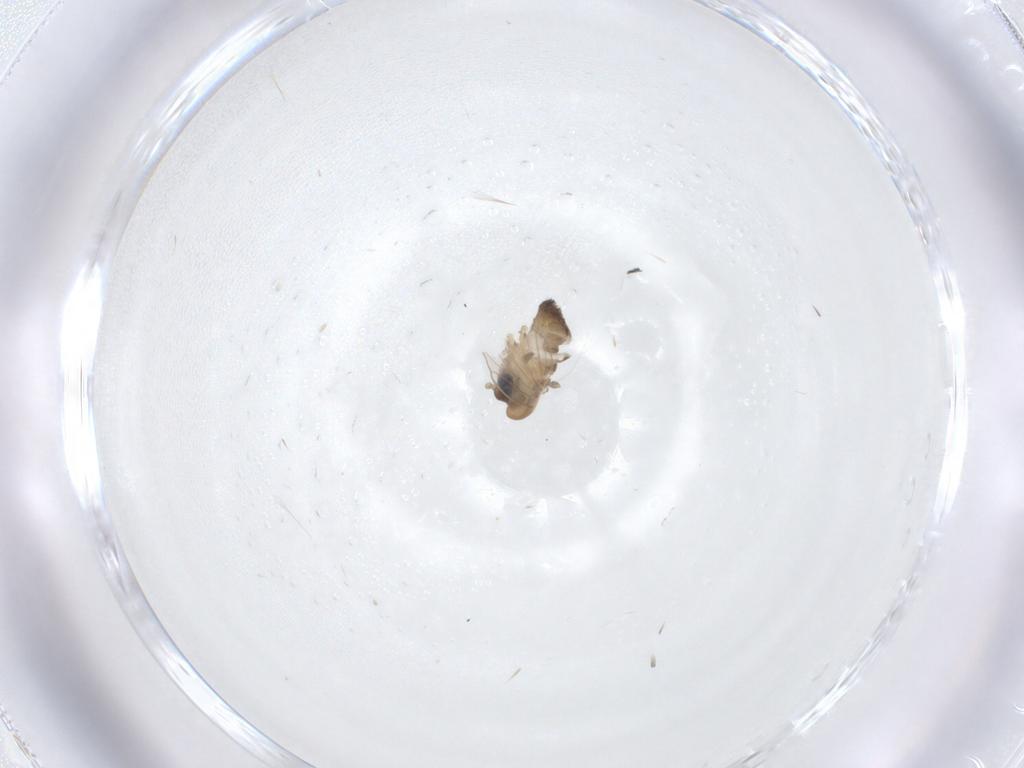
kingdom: Animalia
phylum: Arthropoda
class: Insecta
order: Diptera
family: Psychodidae
